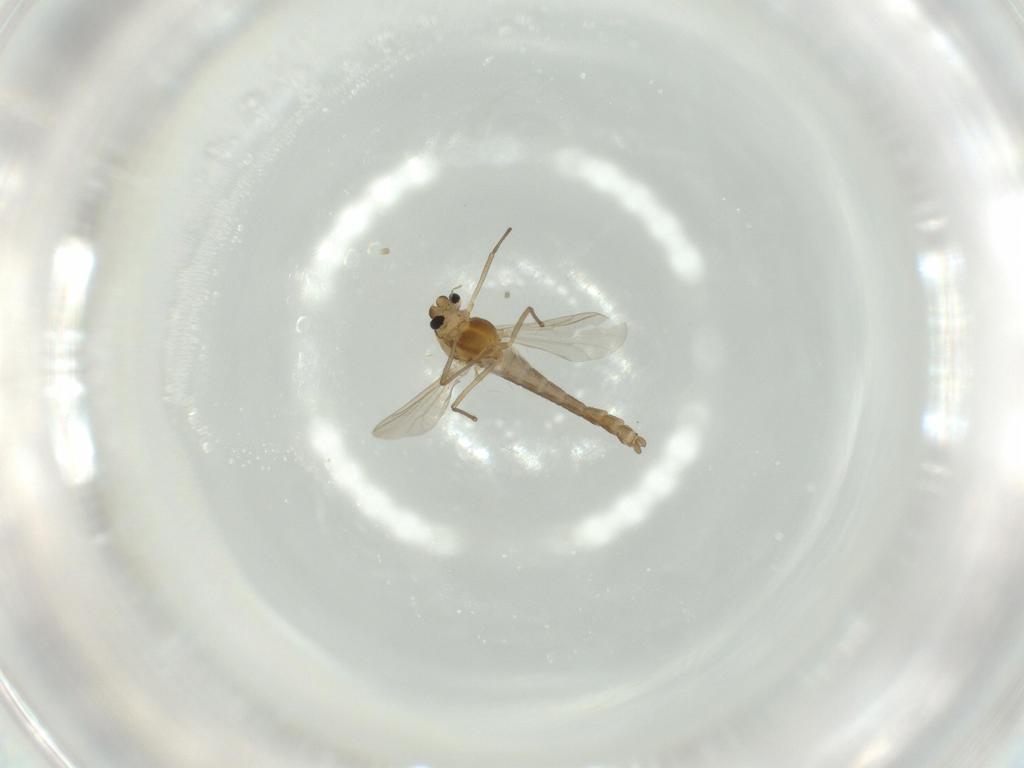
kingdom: Animalia
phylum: Arthropoda
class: Insecta
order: Diptera
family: Chironomidae
